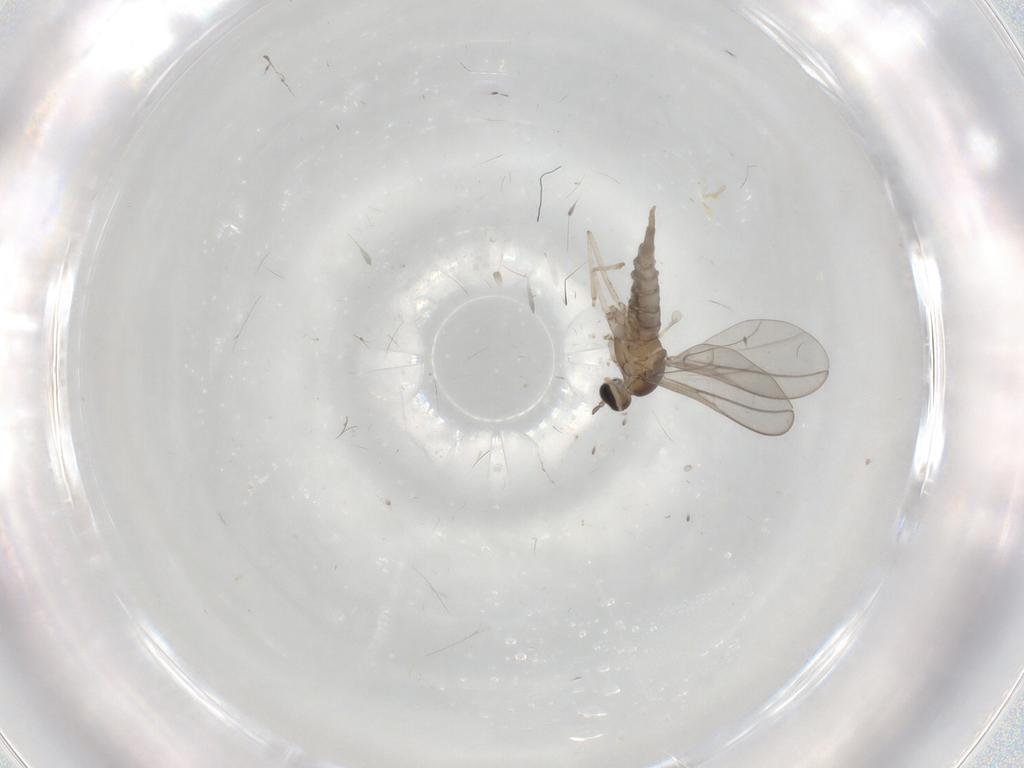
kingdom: Animalia
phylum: Arthropoda
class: Insecta
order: Diptera
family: Cecidomyiidae
